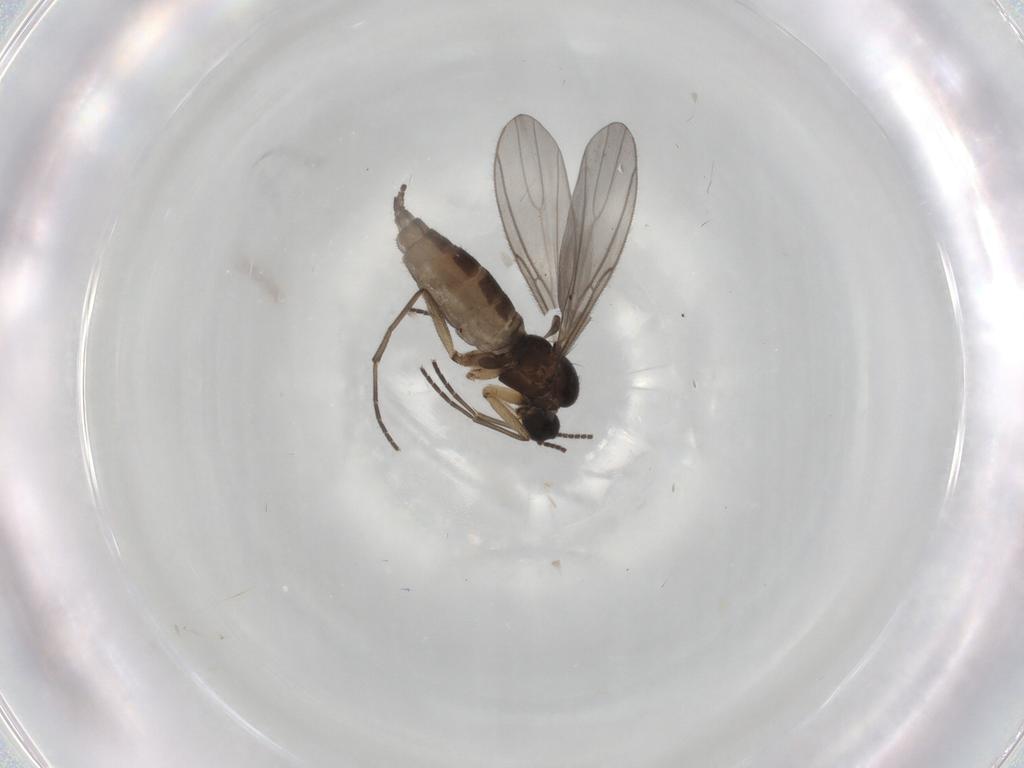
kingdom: Animalia
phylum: Arthropoda
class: Insecta
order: Diptera
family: Sciaridae
